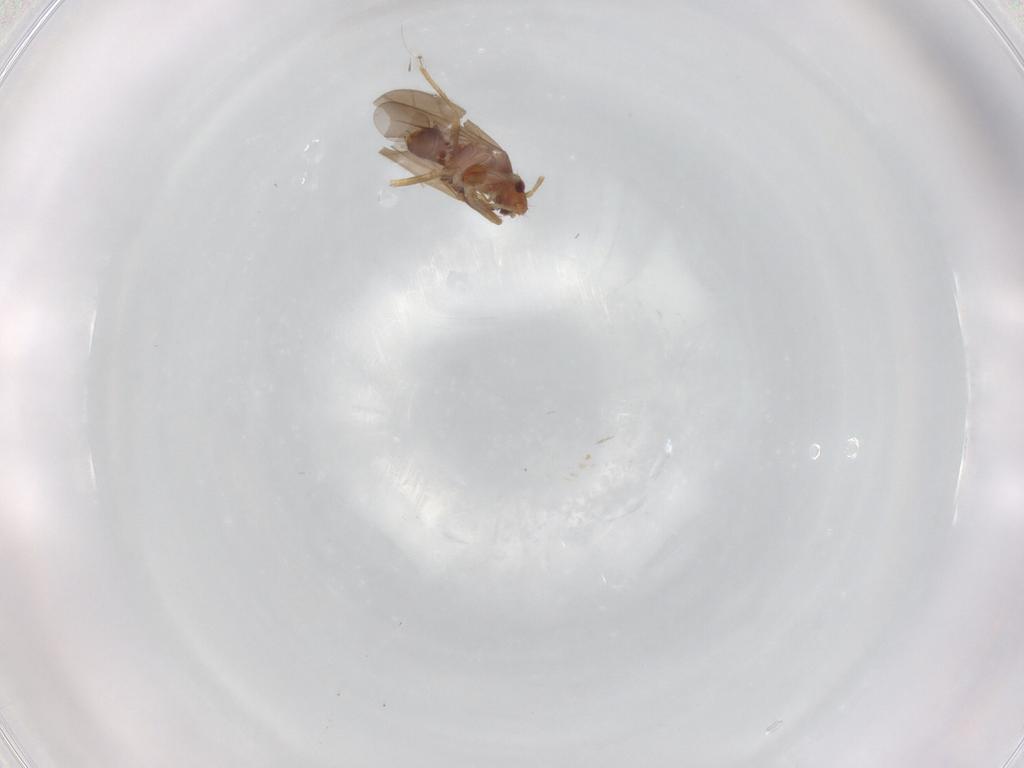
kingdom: Animalia
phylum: Arthropoda
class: Insecta
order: Hemiptera
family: Ceratocombidae
